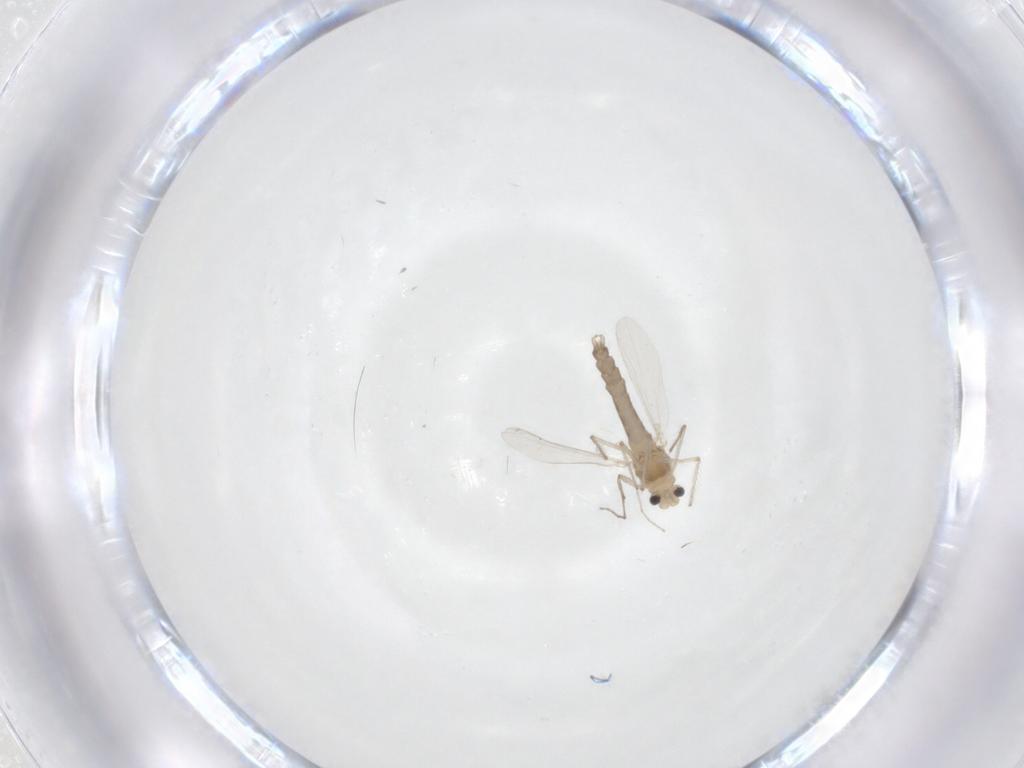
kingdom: Animalia
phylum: Arthropoda
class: Insecta
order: Diptera
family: Chironomidae
